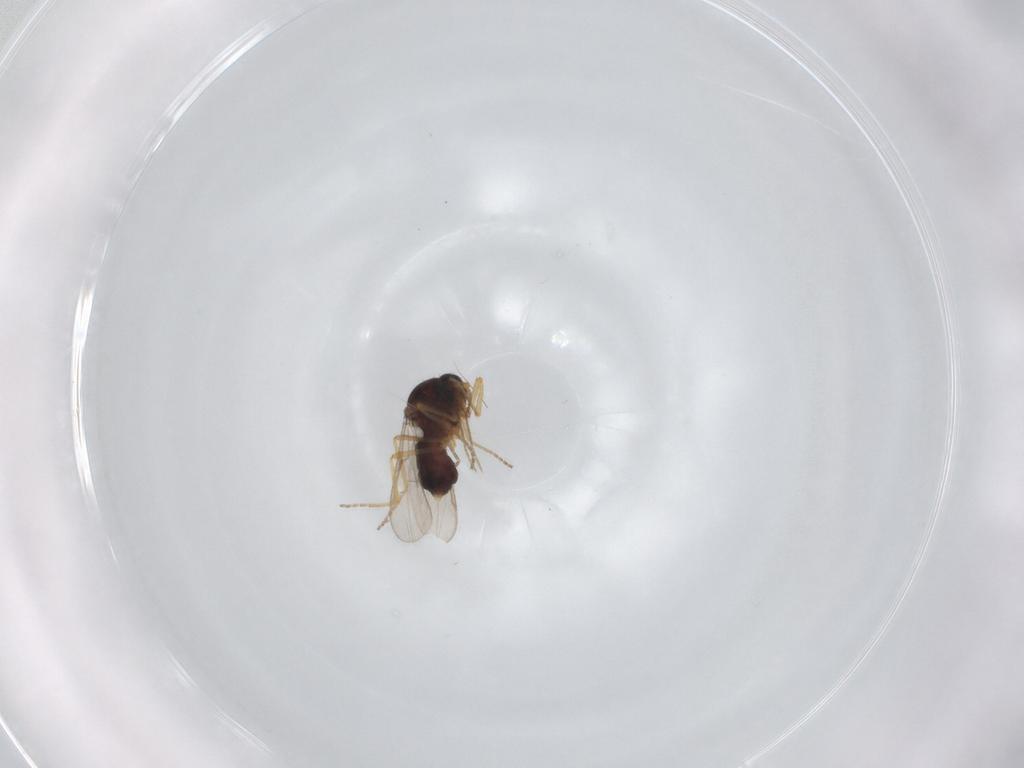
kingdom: Animalia
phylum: Arthropoda
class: Insecta
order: Diptera
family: Ceratopogonidae
